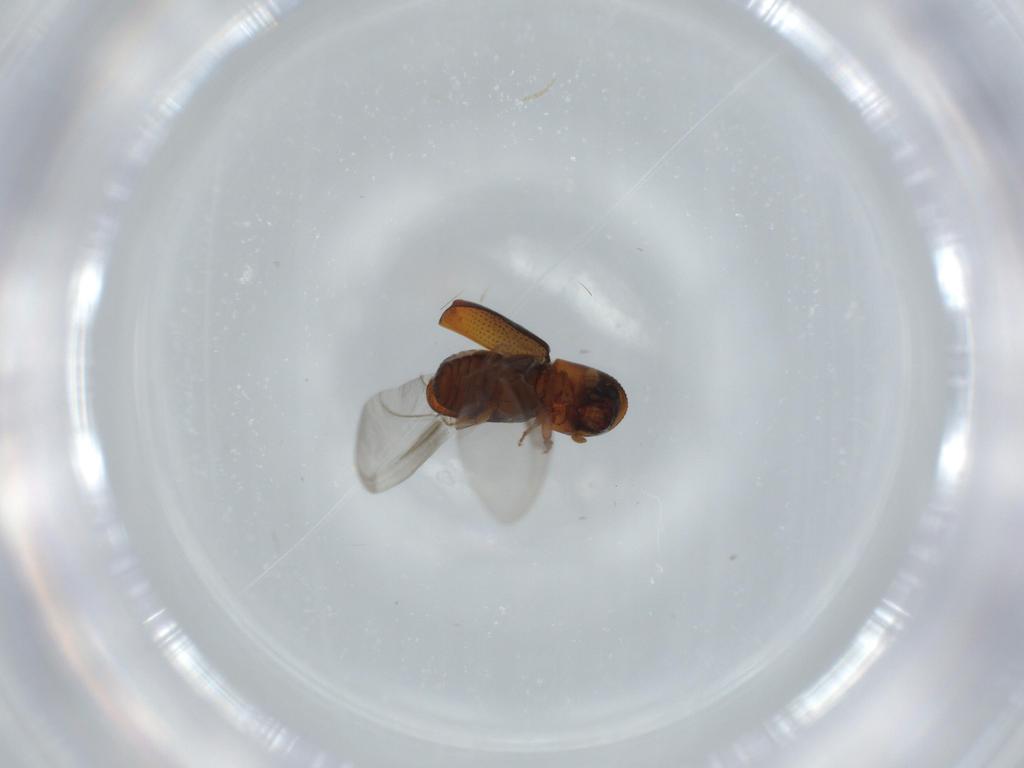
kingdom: Animalia
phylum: Arthropoda
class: Insecta
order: Coleoptera
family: Curculionidae
